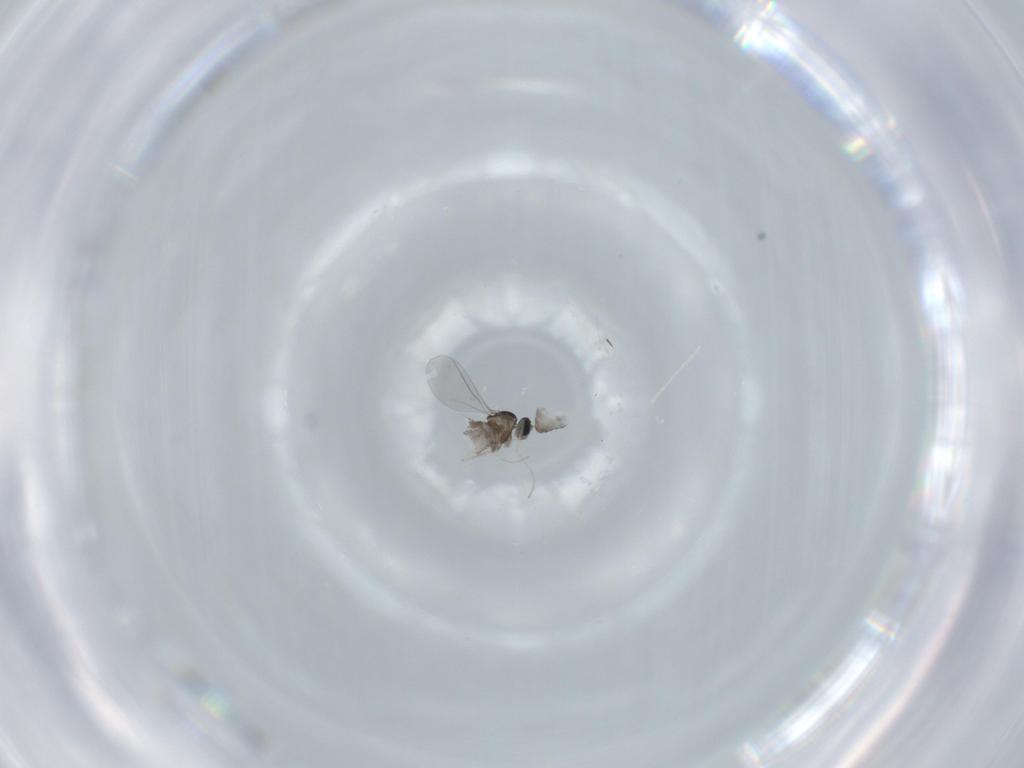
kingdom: Animalia
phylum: Arthropoda
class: Insecta
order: Diptera
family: Cecidomyiidae
